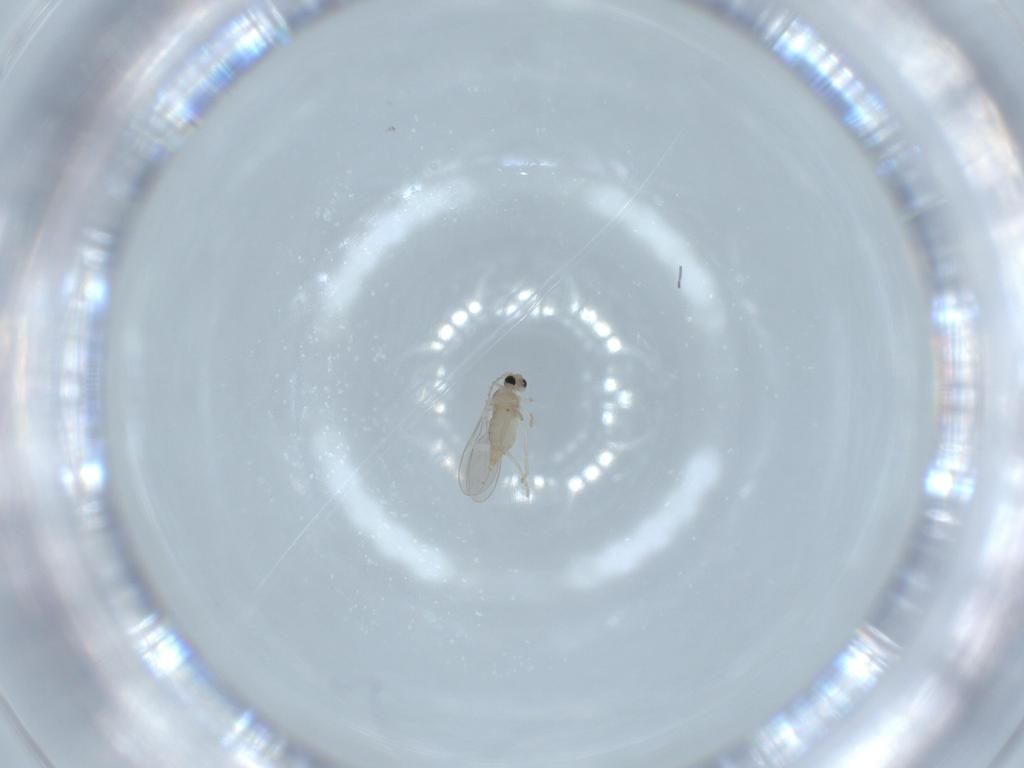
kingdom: Animalia
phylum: Arthropoda
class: Insecta
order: Diptera
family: Cecidomyiidae
